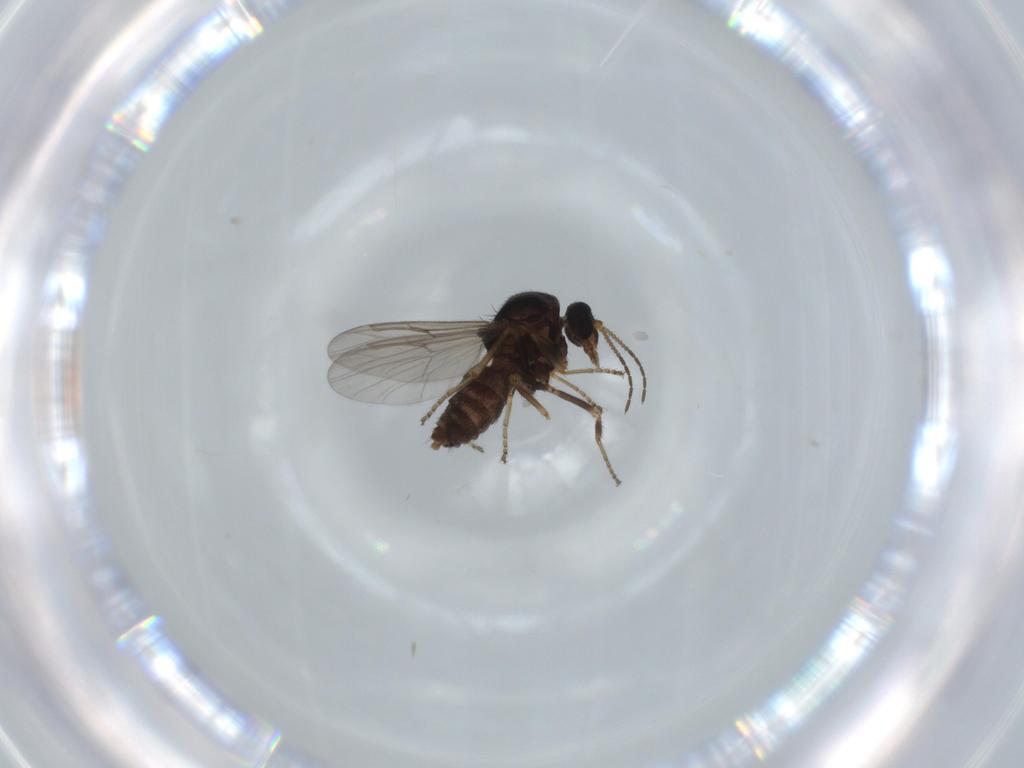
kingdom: Animalia
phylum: Arthropoda
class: Insecta
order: Diptera
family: Ceratopogonidae
